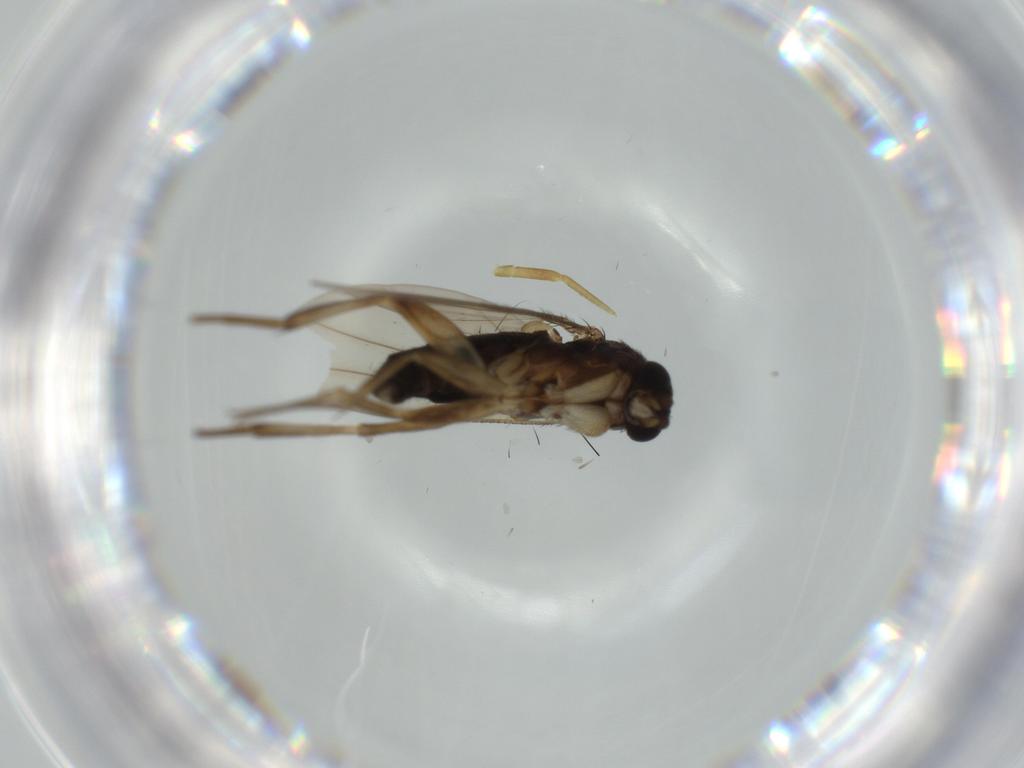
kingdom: Animalia
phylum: Arthropoda
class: Insecta
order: Diptera
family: Phoridae
